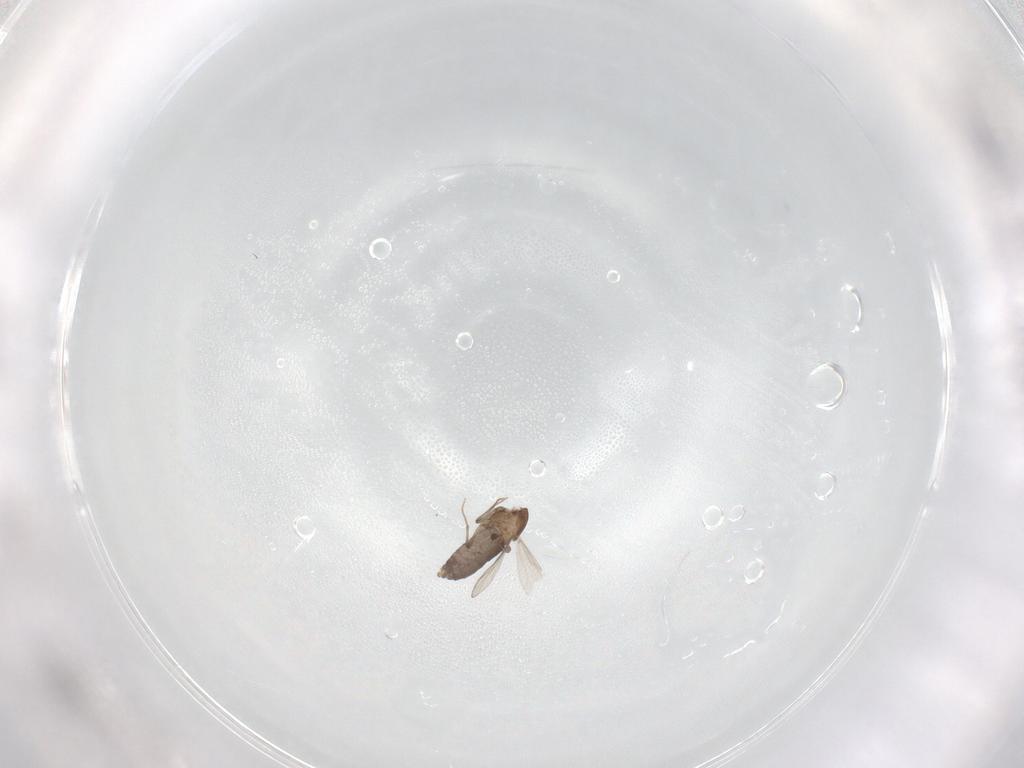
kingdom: Animalia
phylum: Arthropoda
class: Insecta
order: Diptera
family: Chironomidae
